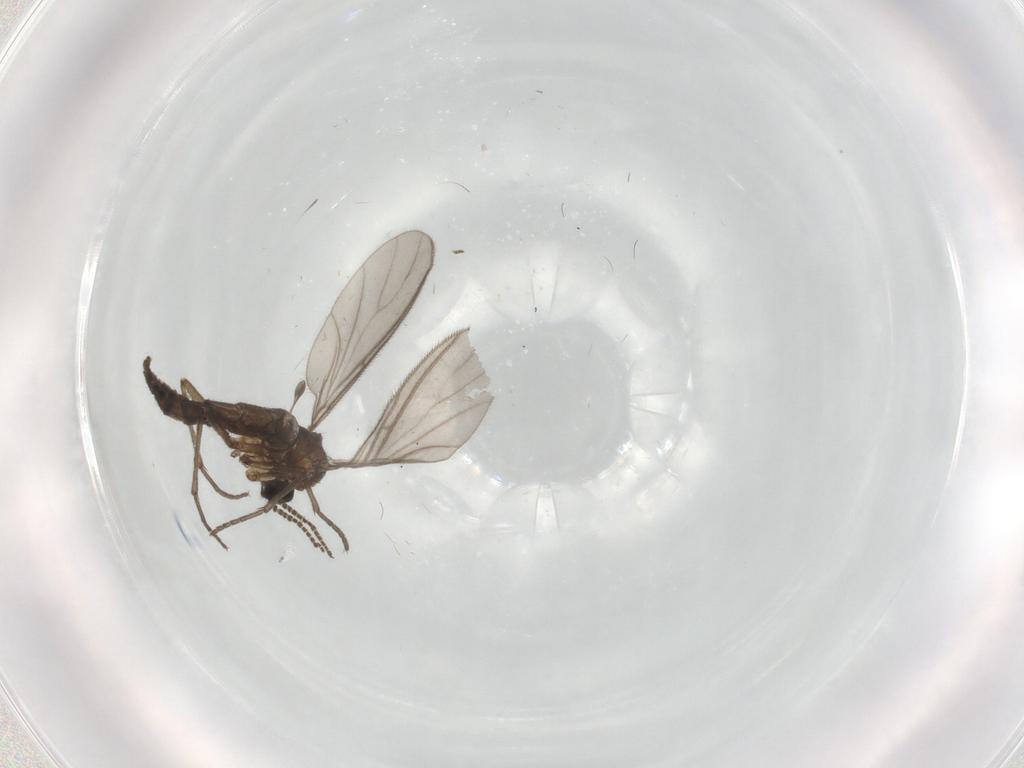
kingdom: Animalia
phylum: Arthropoda
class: Insecta
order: Diptera
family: Sciaridae
